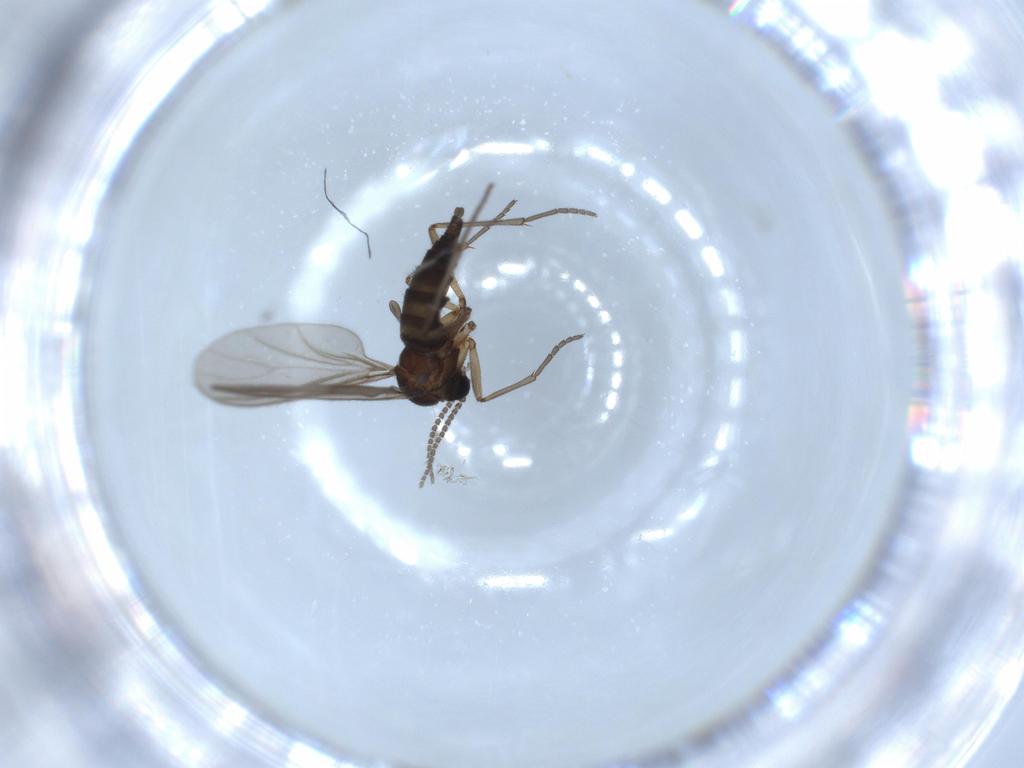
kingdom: Animalia
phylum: Arthropoda
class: Insecta
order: Diptera
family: Sciaridae
